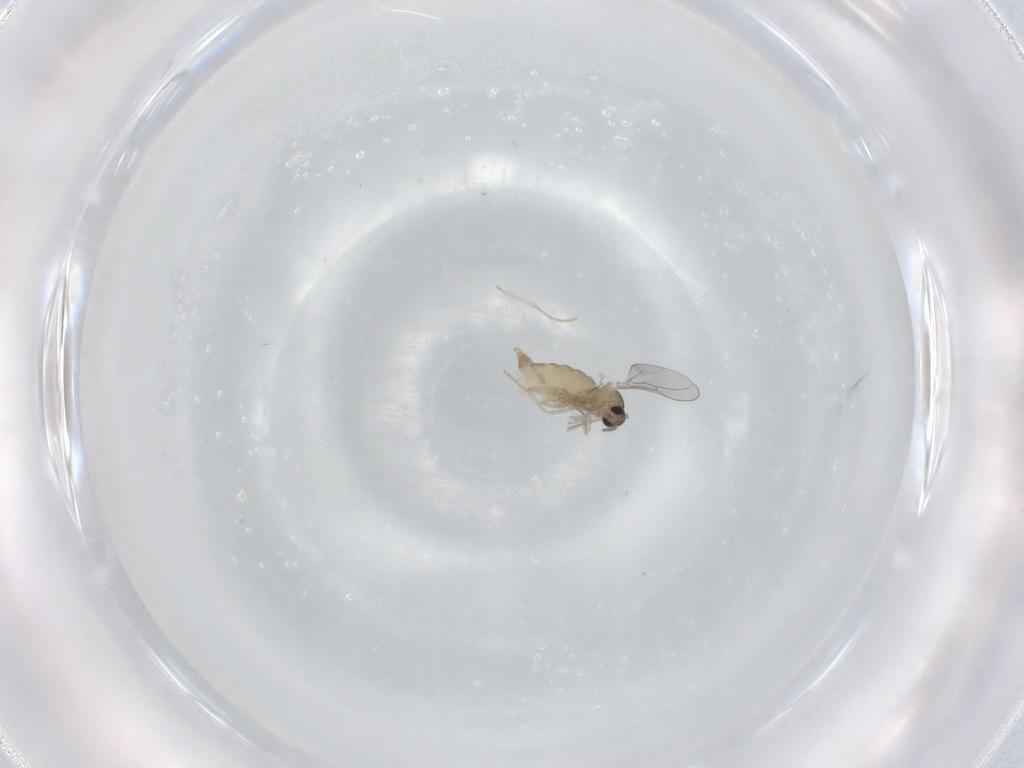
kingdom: Animalia
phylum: Arthropoda
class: Insecta
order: Diptera
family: Cecidomyiidae
